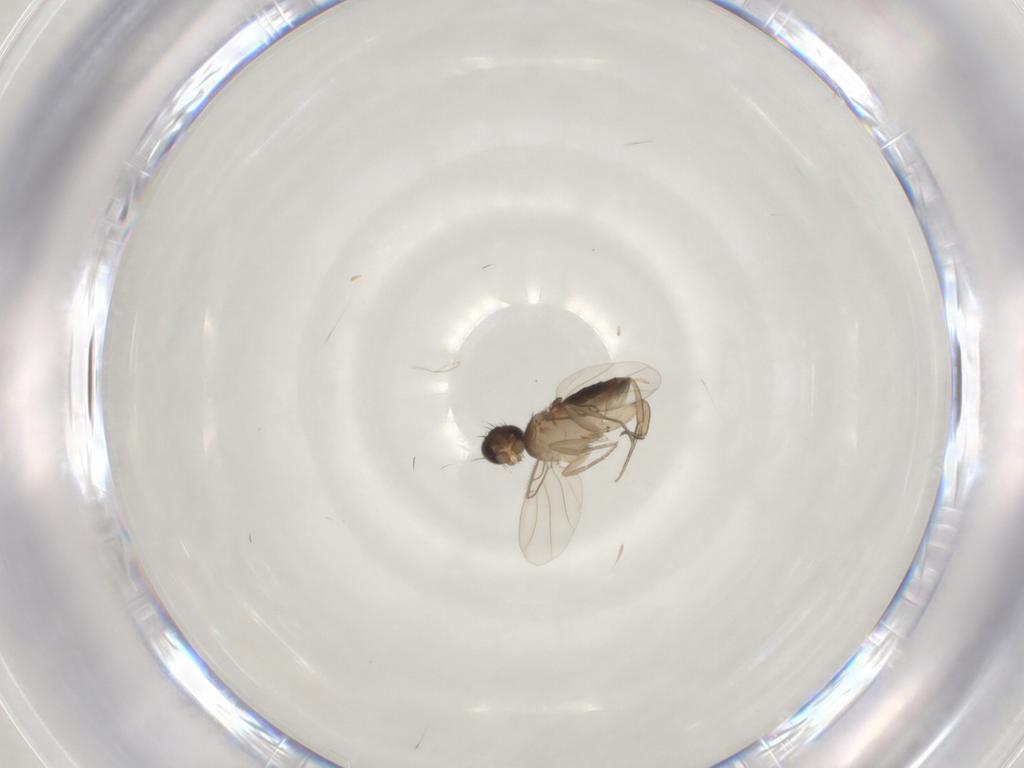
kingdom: Animalia
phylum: Arthropoda
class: Insecta
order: Diptera
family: Phoridae
